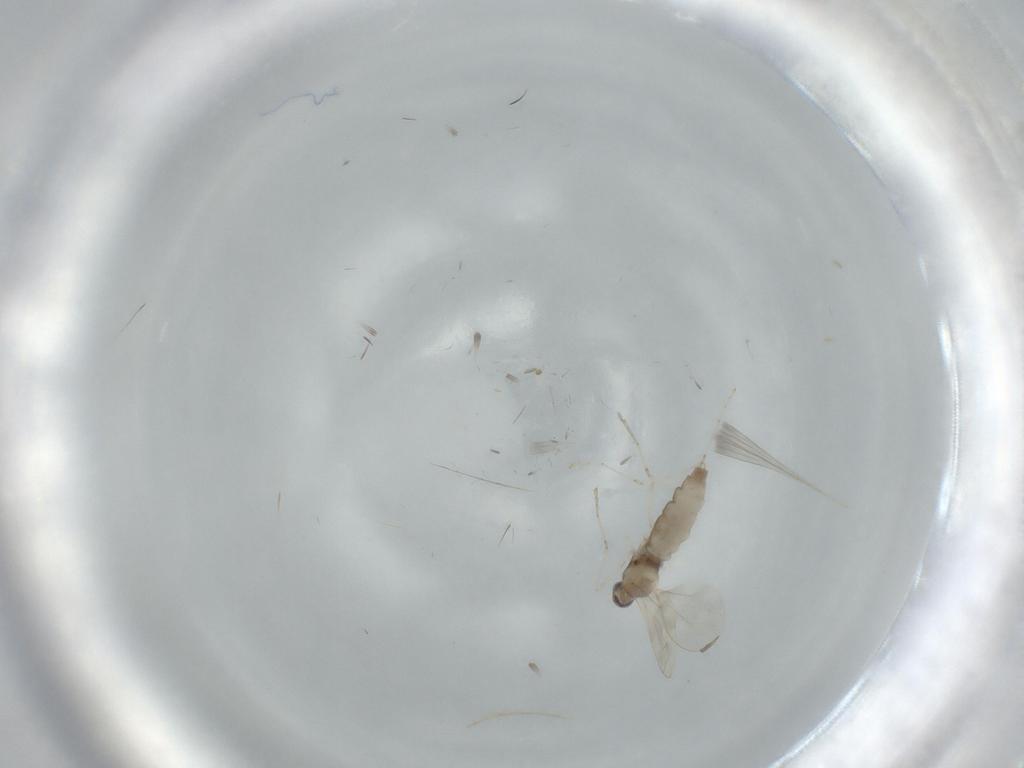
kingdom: Animalia
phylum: Arthropoda
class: Insecta
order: Diptera
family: Cecidomyiidae
